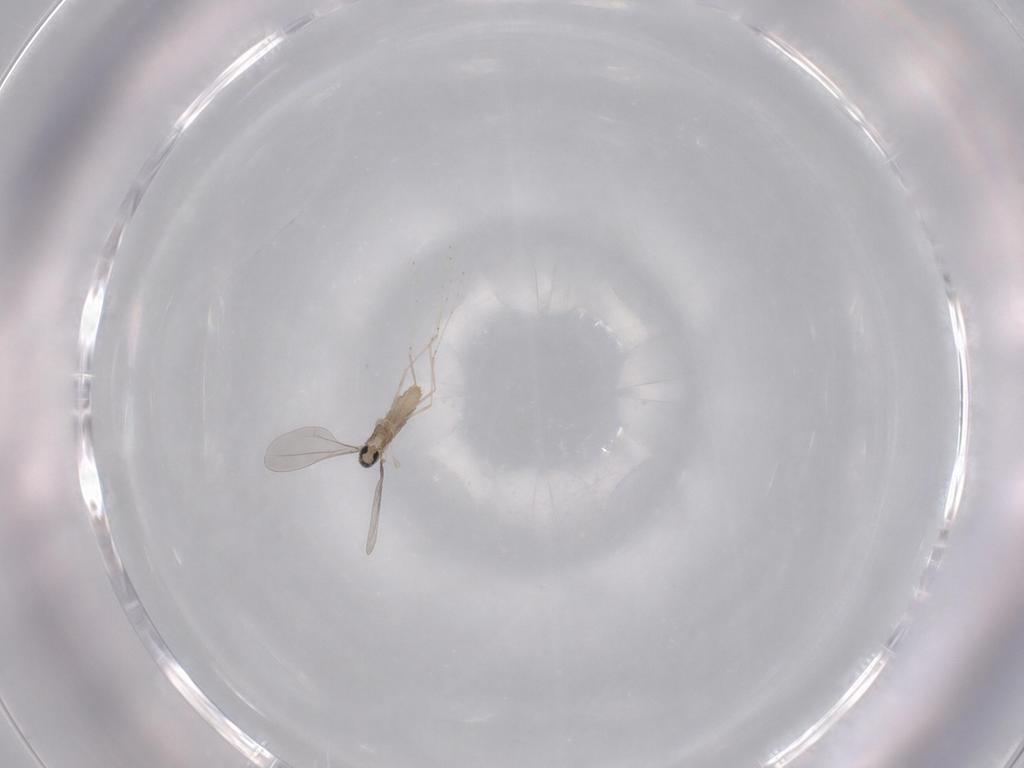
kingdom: Animalia
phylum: Arthropoda
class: Insecta
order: Diptera
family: Cecidomyiidae
